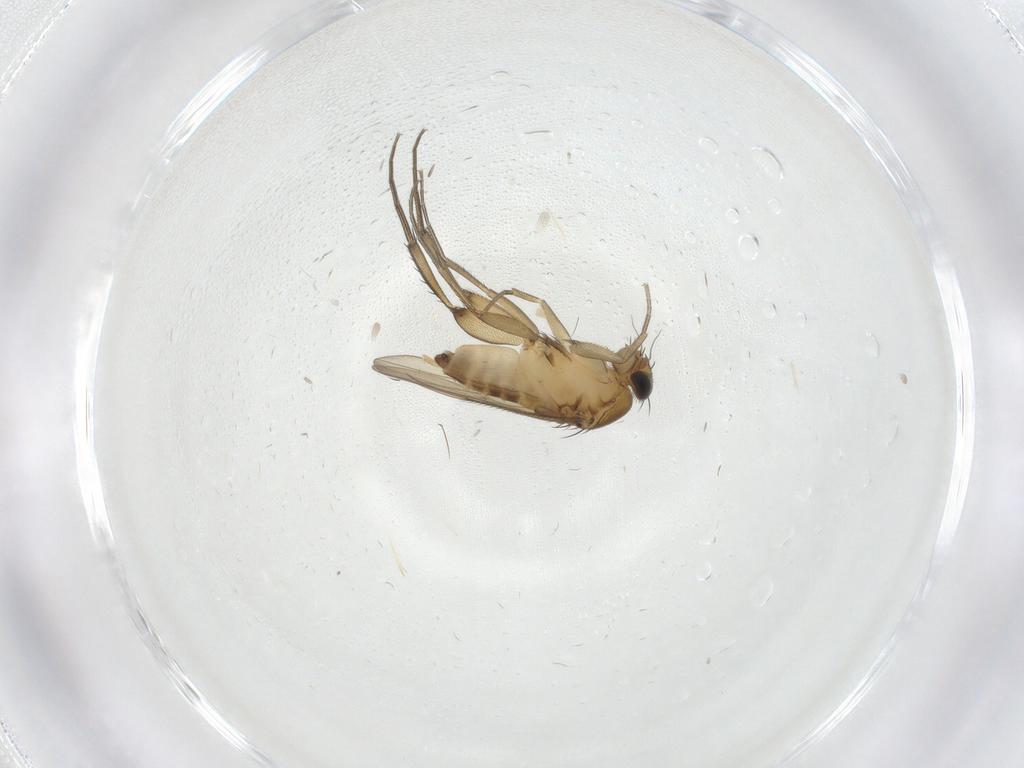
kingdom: Animalia
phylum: Arthropoda
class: Insecta
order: Diptera
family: Phoridae
